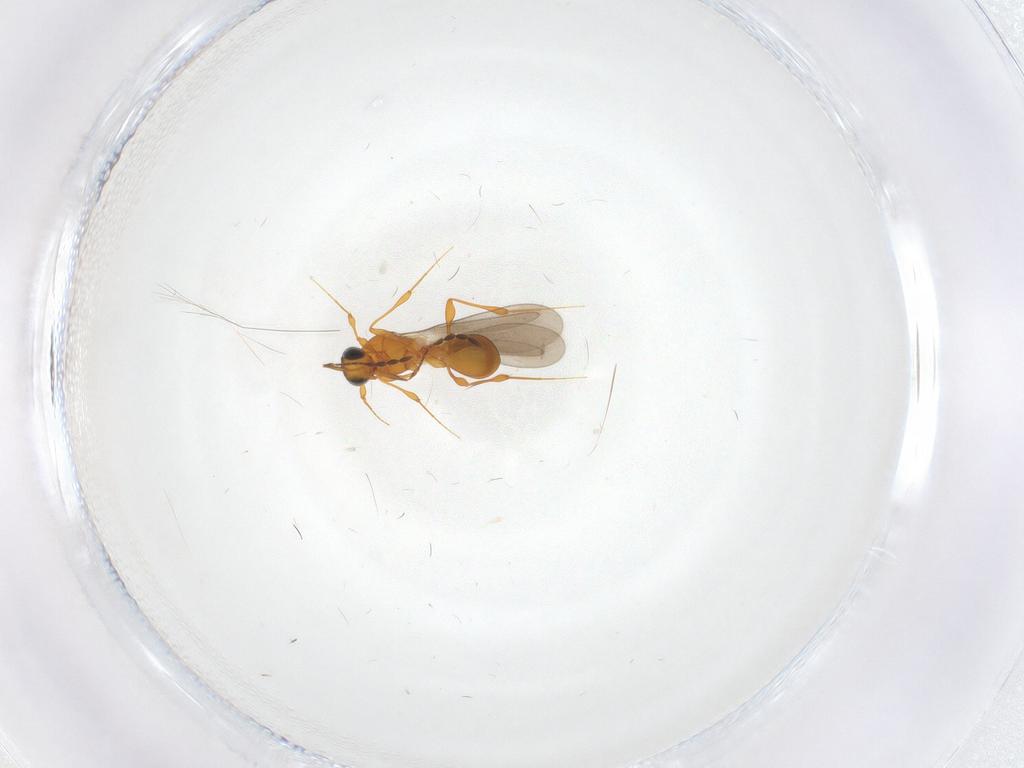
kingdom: Animalia
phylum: Arthropoda
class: Insecta
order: Hymenoptera
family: Platygastridae
